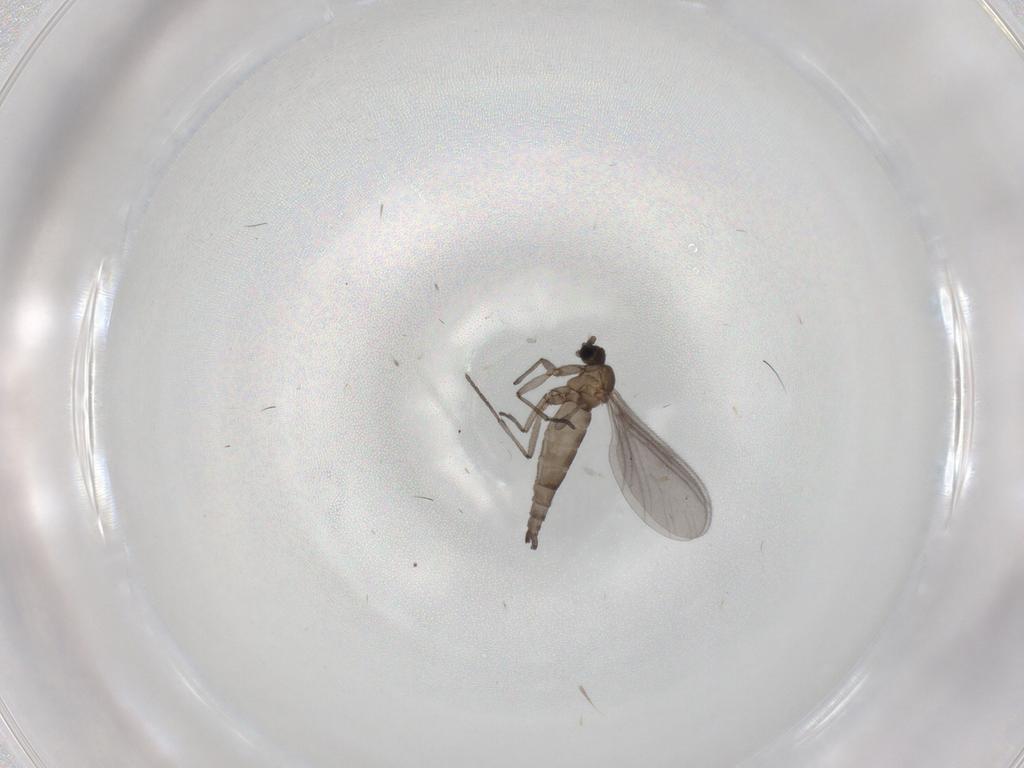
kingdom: Animalia
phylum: Arthropoda
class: Insecta
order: Diptera
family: Sciaridae
